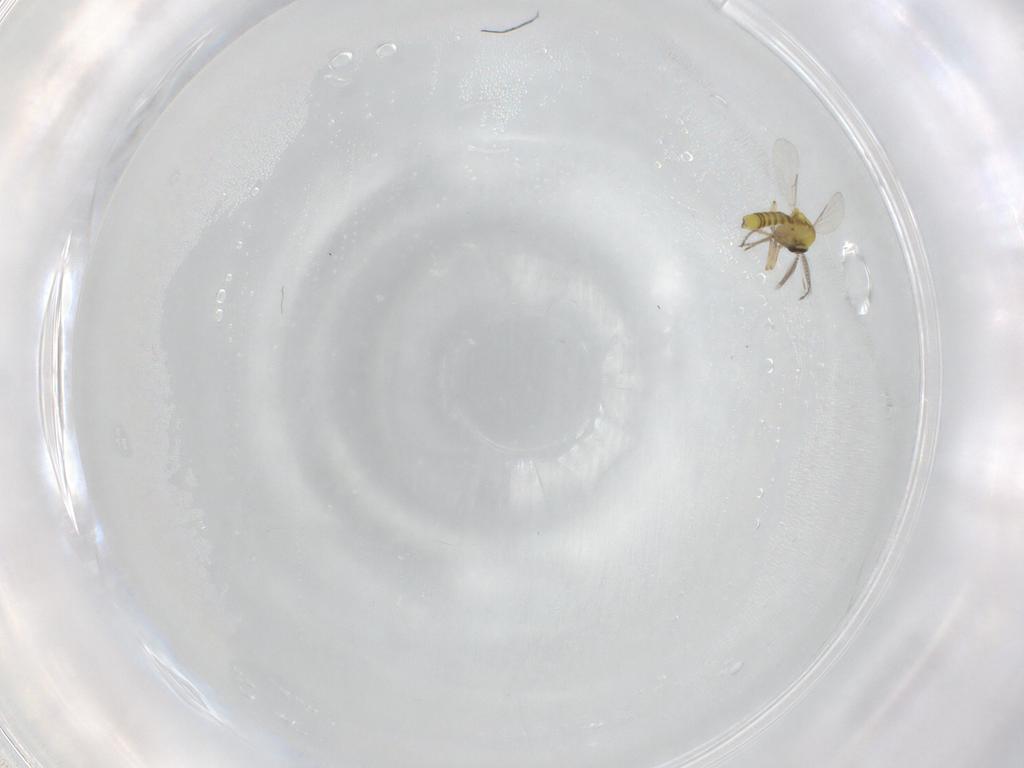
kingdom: Animalia
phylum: Arthropoda
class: Insecta
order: Diptera
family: Ceratopogonidae
